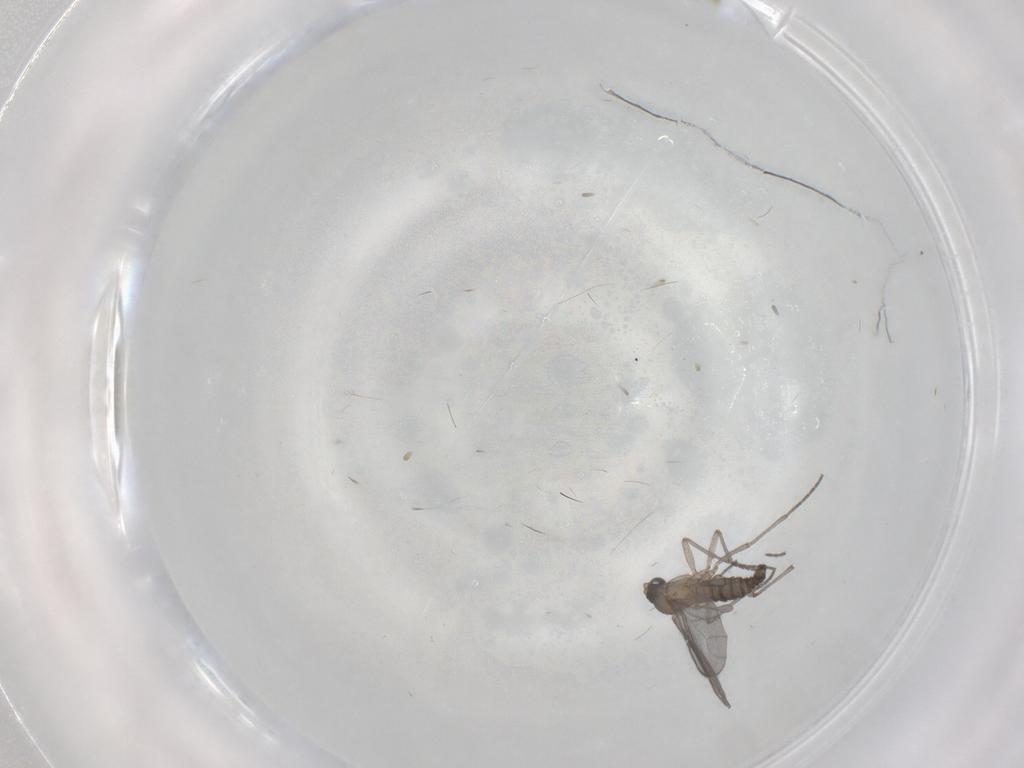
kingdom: Animalia
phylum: Arthropoda
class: Insecta
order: Diptera
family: Sciaridae
